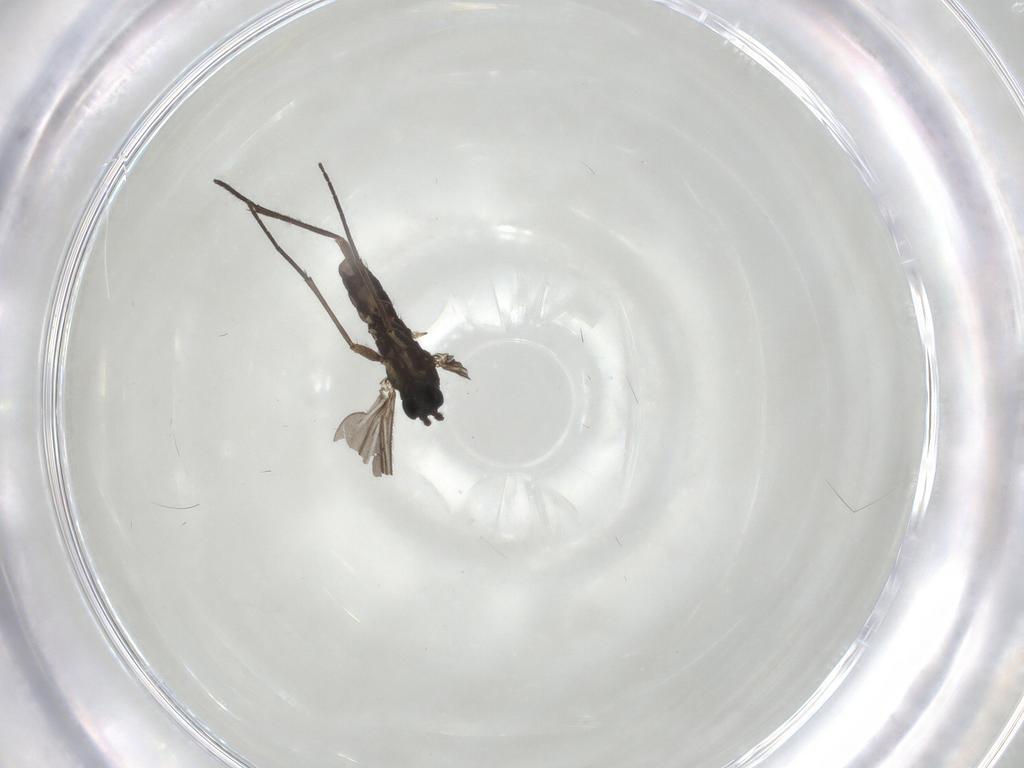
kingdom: Animalia
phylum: Arthropoda
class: Insecta
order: Diptera
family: Sciaridae
